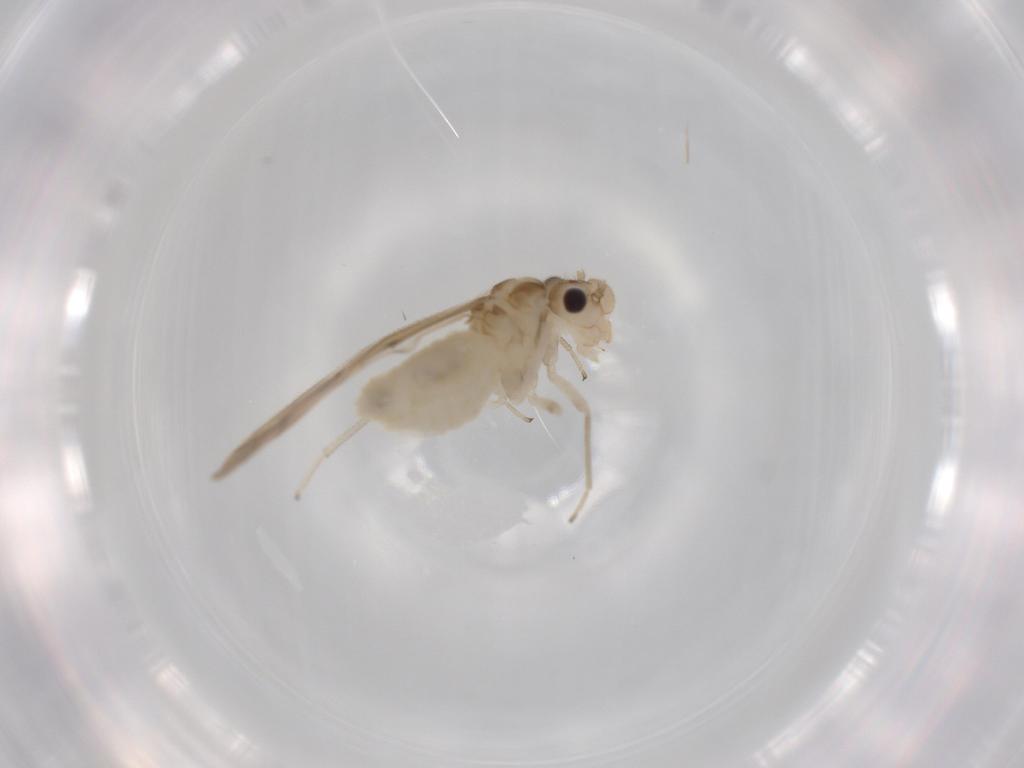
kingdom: Animalia
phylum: Arthropoda
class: Insecta
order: Psocodea
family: Caeciliusidae
